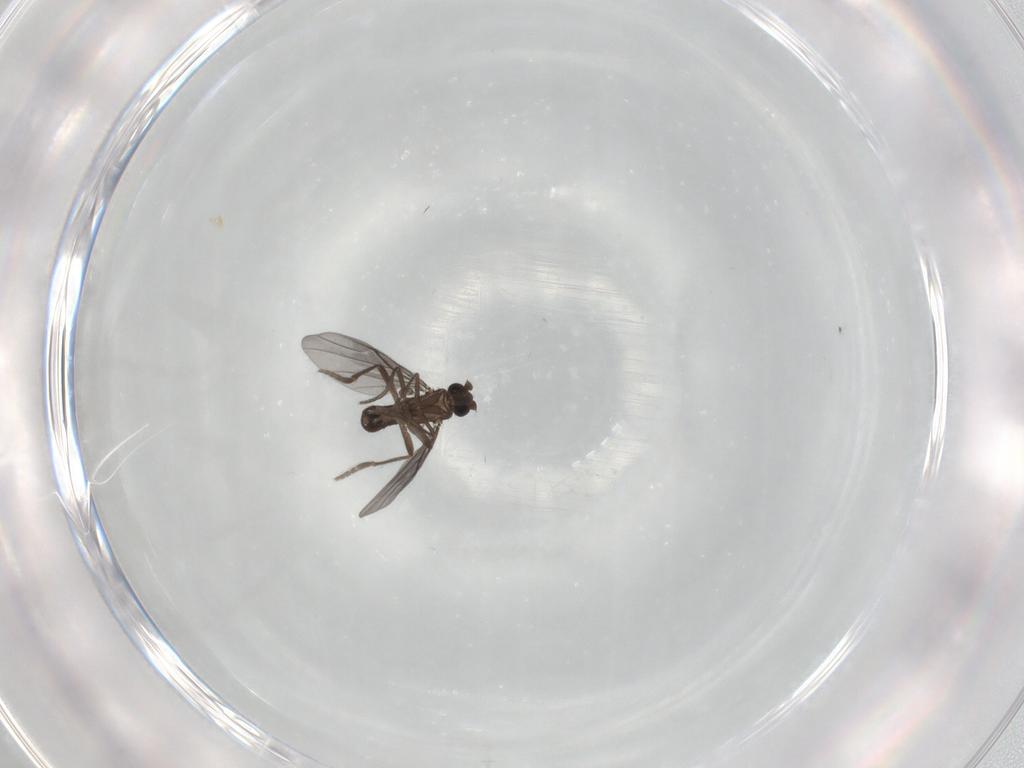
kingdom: Animalia
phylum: Arthropoda
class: Insecta
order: Diptera
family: Phoridae
